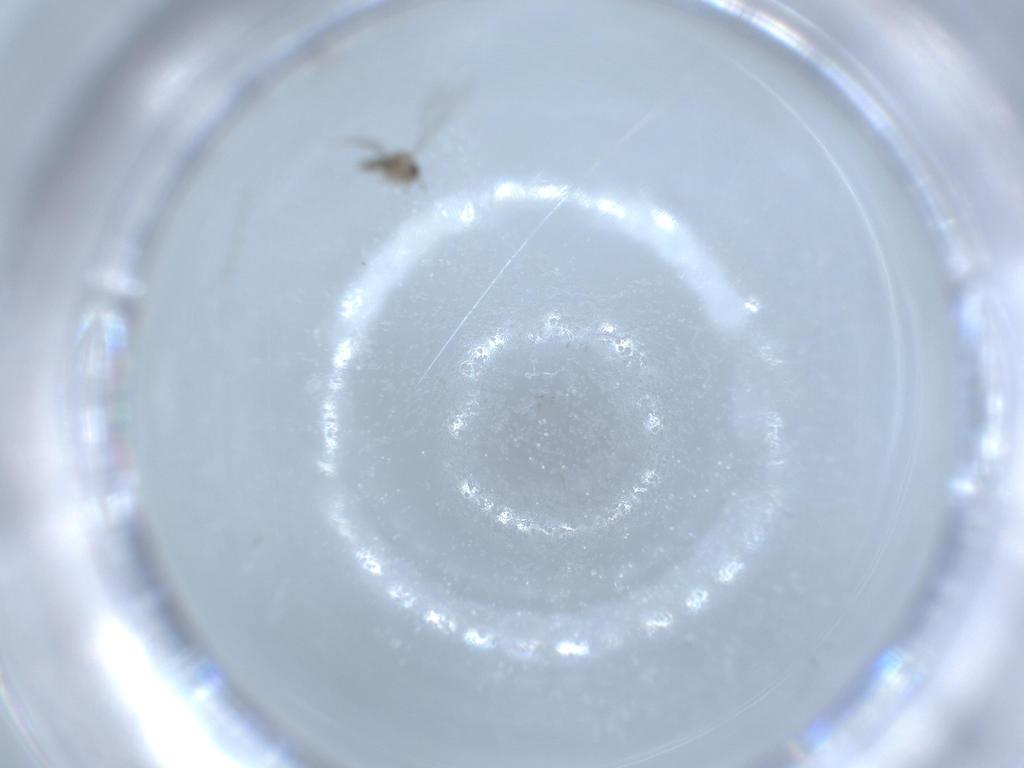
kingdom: Animalia
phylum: Arthropoda
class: Insecta
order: Diptera
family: Cecidomyiidae
